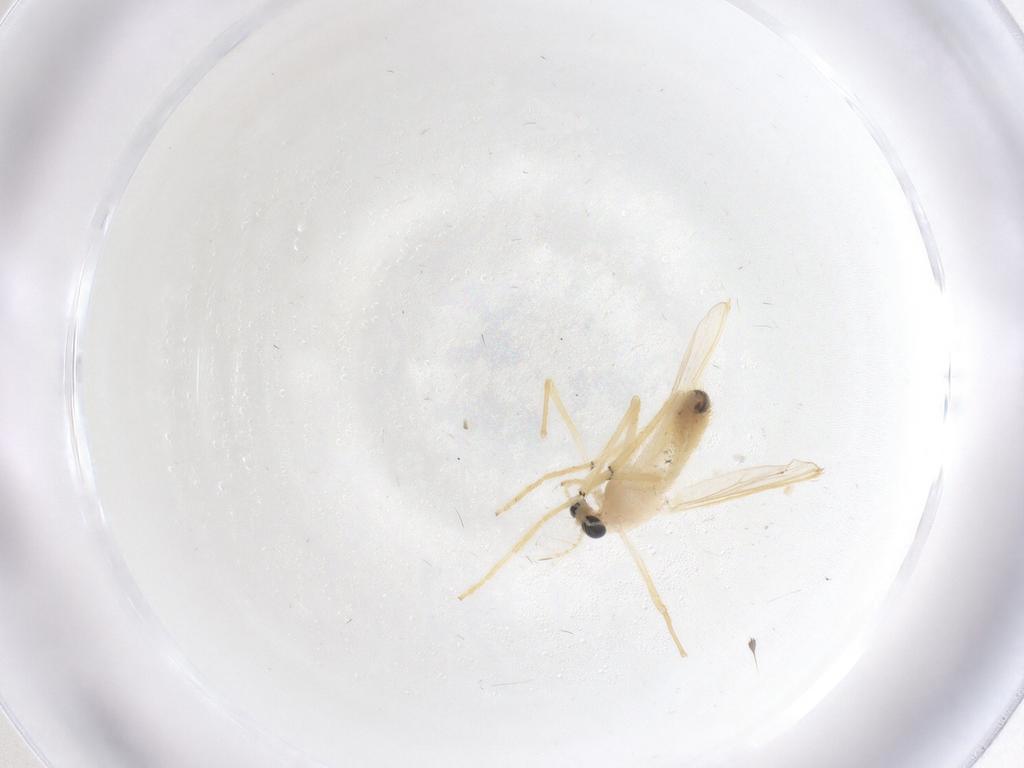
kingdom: Animalia
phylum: Arthropoda
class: Insecta
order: Diptera
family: Chironomidae
